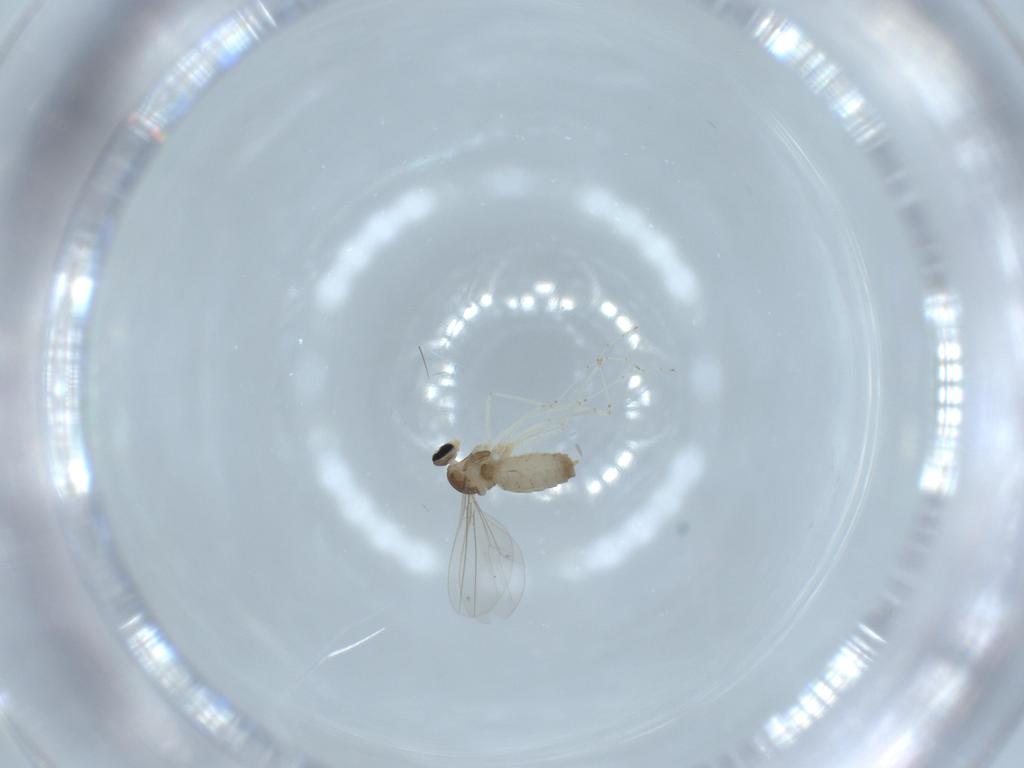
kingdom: Animalia
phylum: Arthropoda
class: Insecta
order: Diptera
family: Cecidomyiidae
